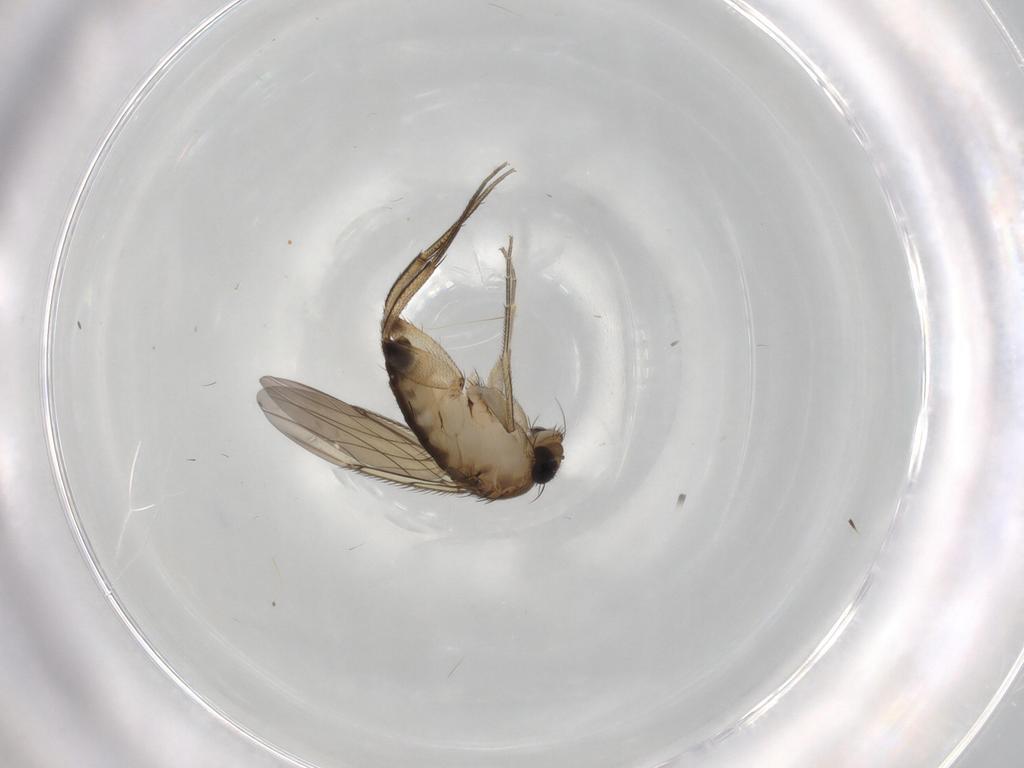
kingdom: Animalia
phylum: Arthropoda
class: Insecta
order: Diptera
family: Phoridae
